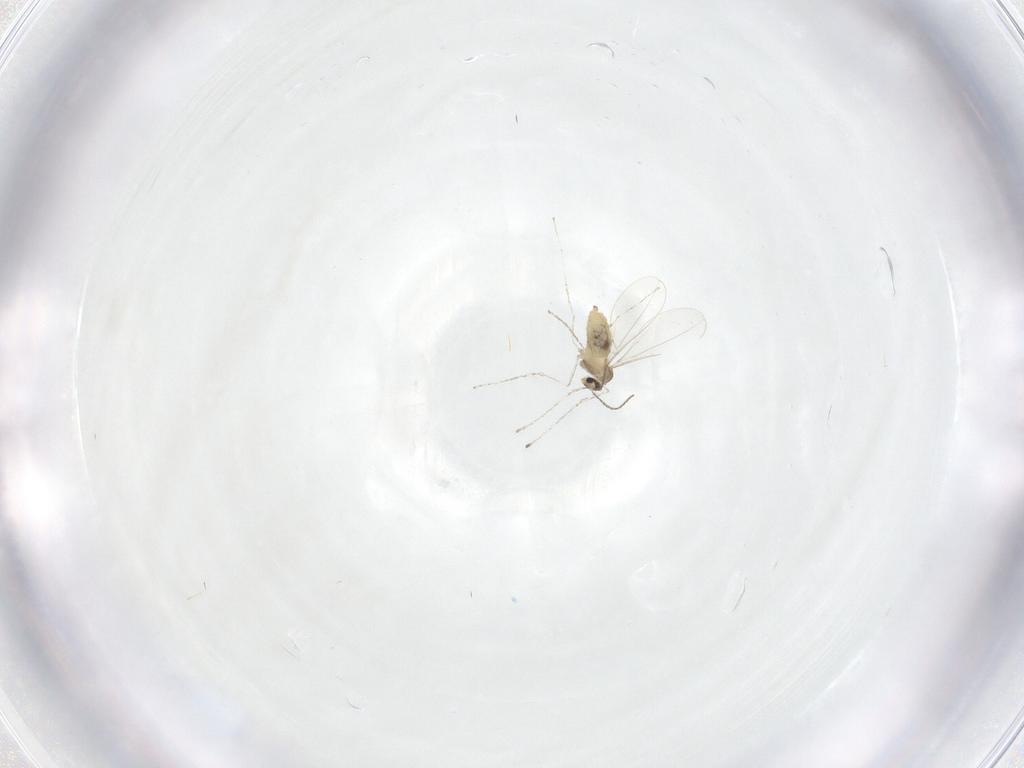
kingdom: Animalia
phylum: Arthropoda
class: Insecta
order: Diptera
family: Cecidomyiidae
